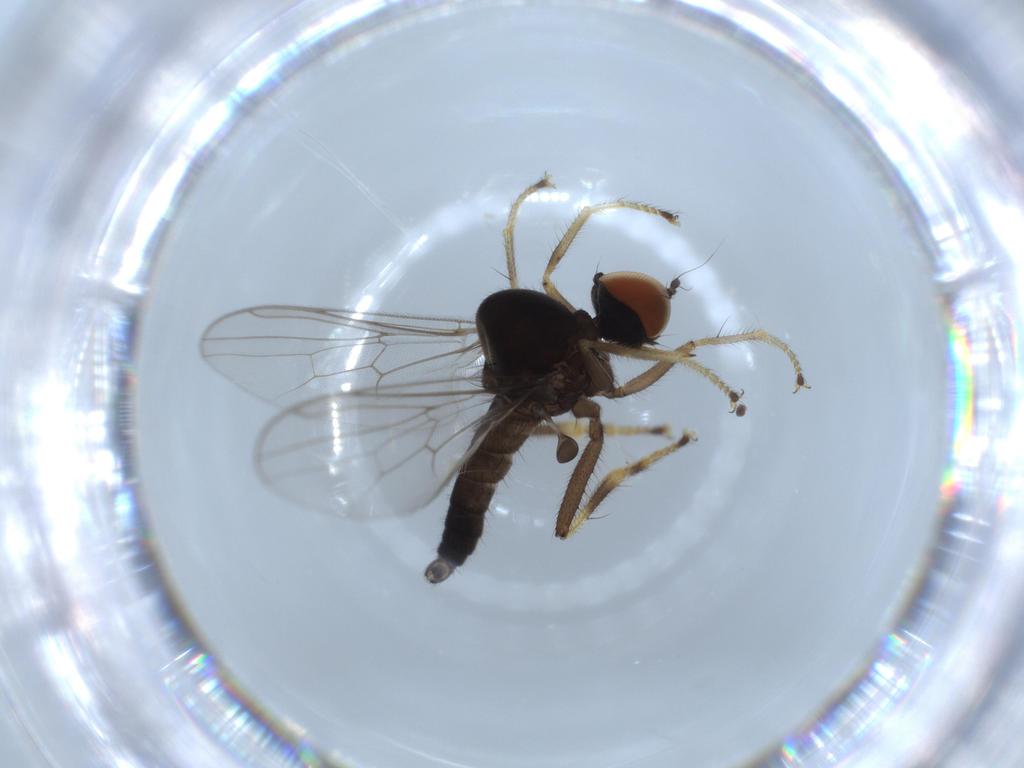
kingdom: Animalia
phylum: Arthropoda
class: Insecta
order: Diptera
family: Hybotidae
